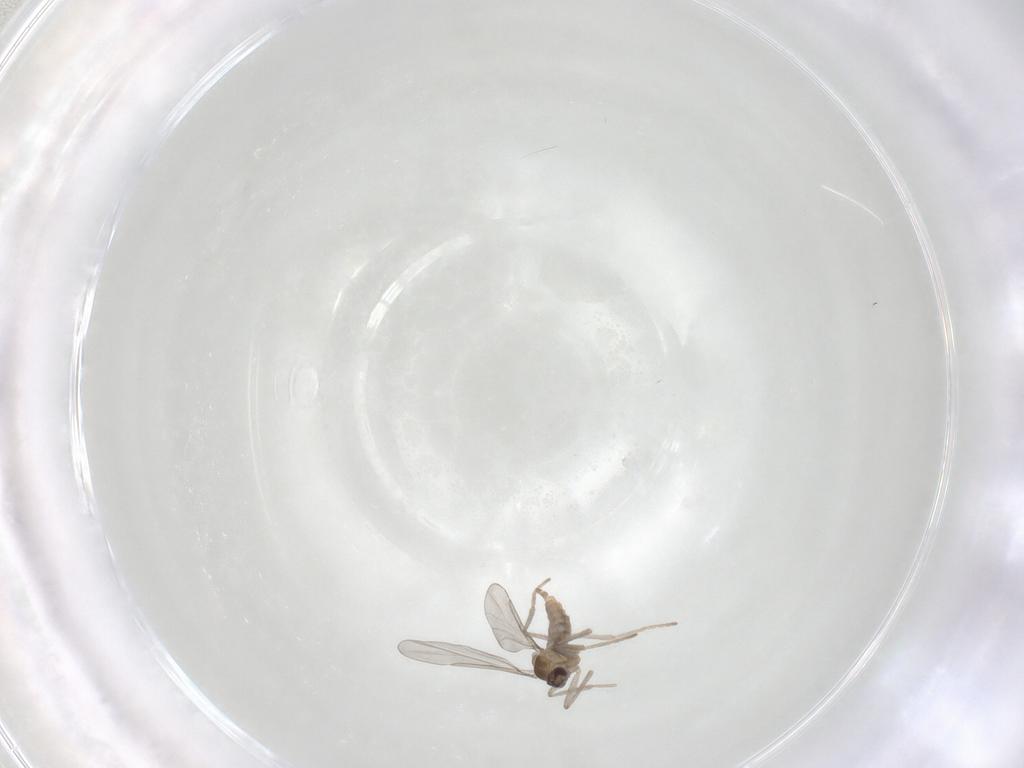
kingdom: Animalia
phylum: Arthropoda
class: Insecta
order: Diptera
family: Cecidomyiidae
